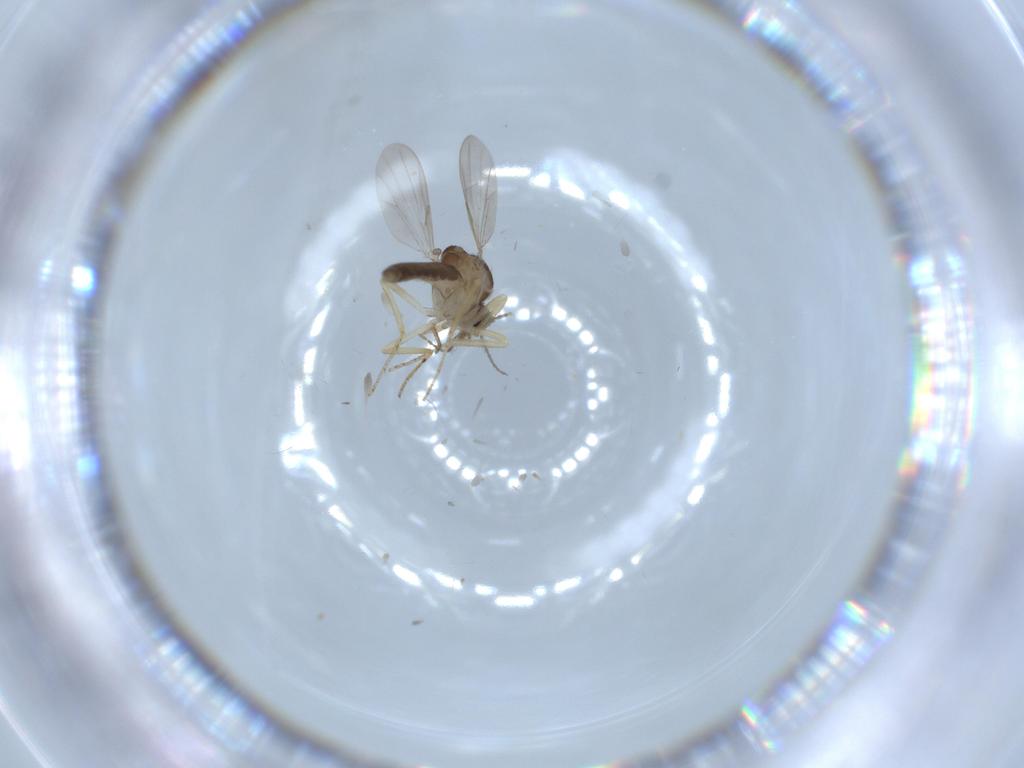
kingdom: Animalia
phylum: Arthropoda
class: Insecta
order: Diptera
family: Ceratopogonidae
